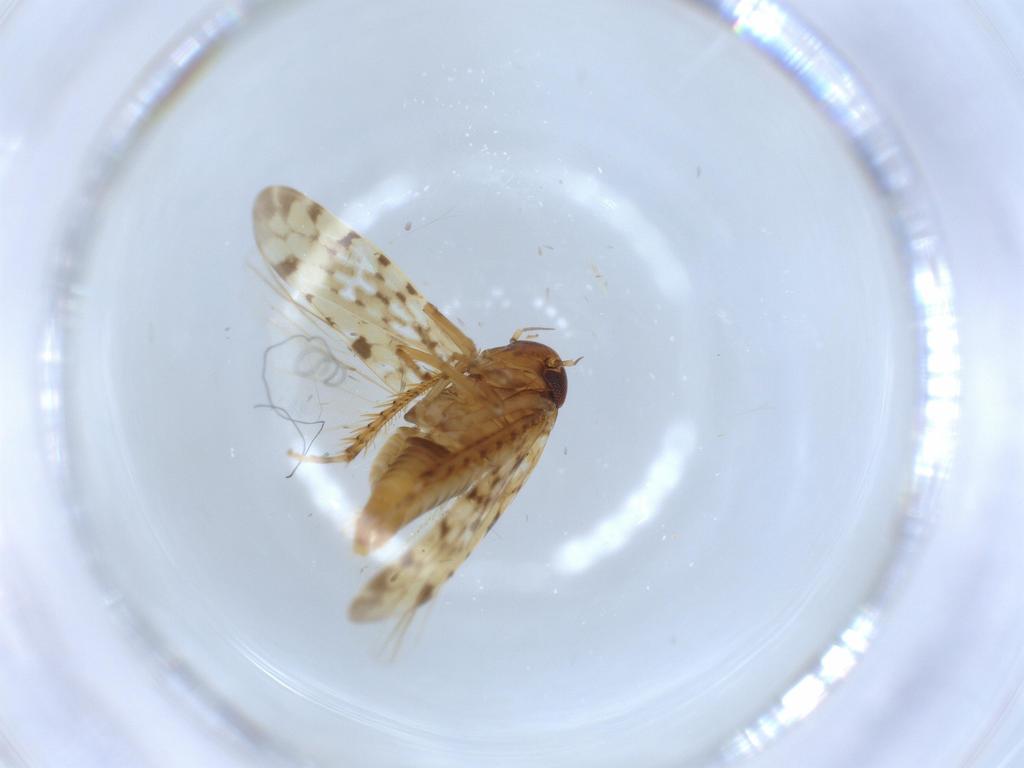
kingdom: Animalia
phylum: Arthropoda
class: Insecta
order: Hemiptera
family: Cicadellidae
